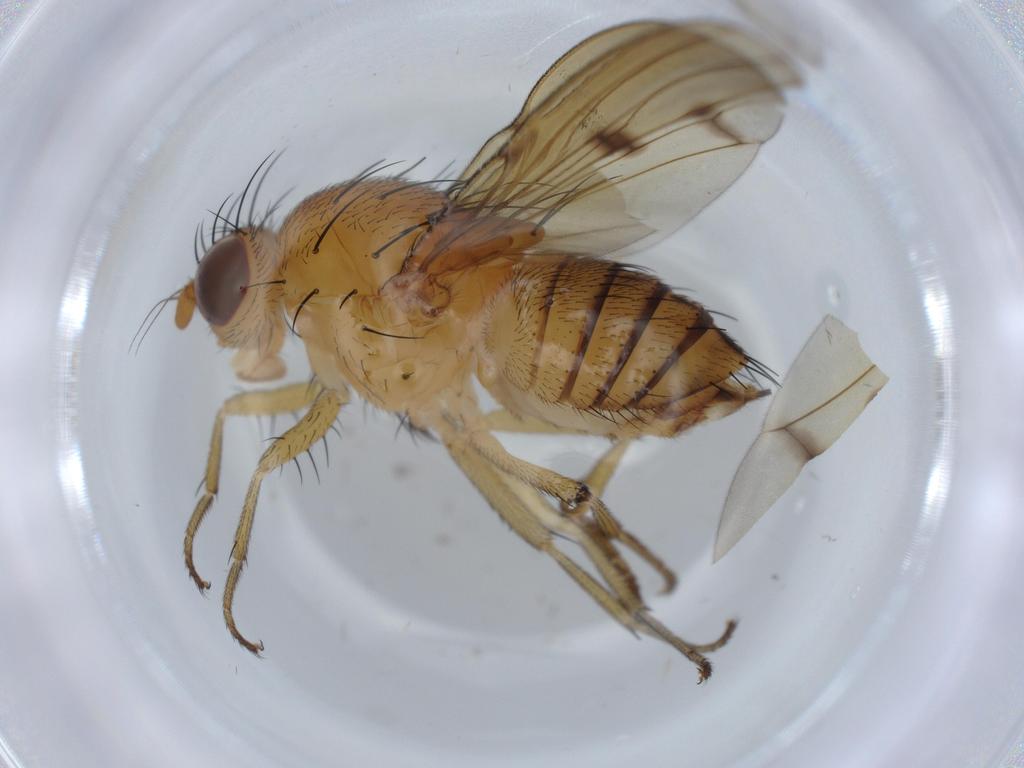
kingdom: Animalia
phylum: Arthropoda
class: Insecta
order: Diptera
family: Lauxaniidae
